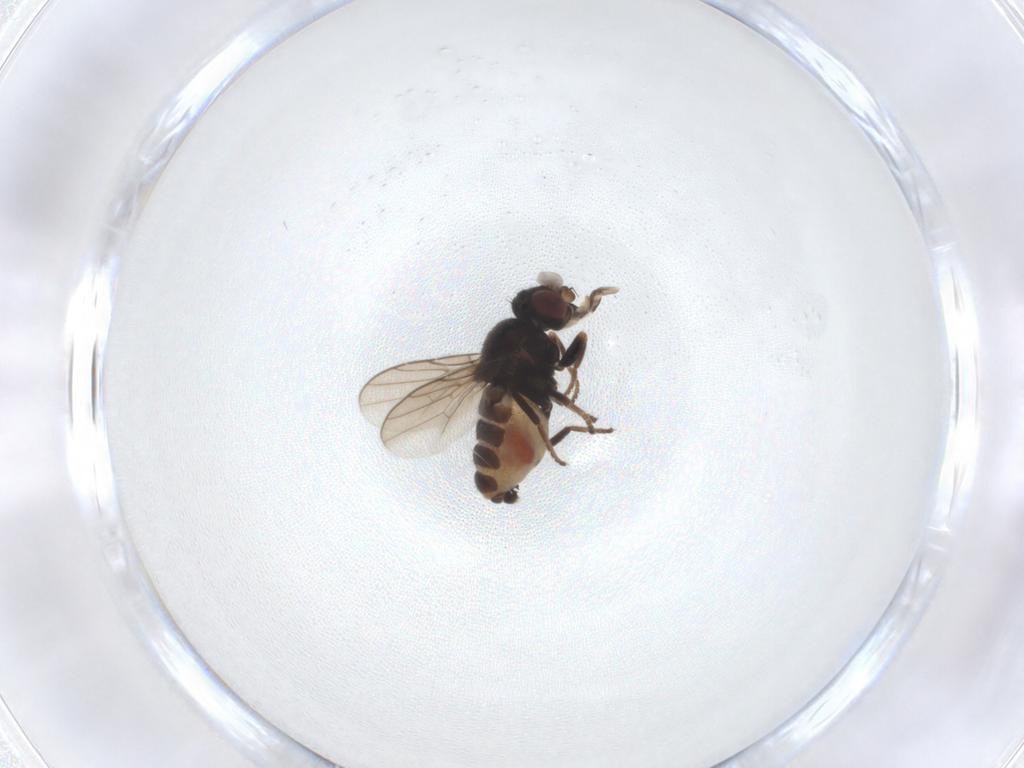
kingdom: Animalia
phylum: Arthropoda
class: Insecta
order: Diptera
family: Chloropidae
